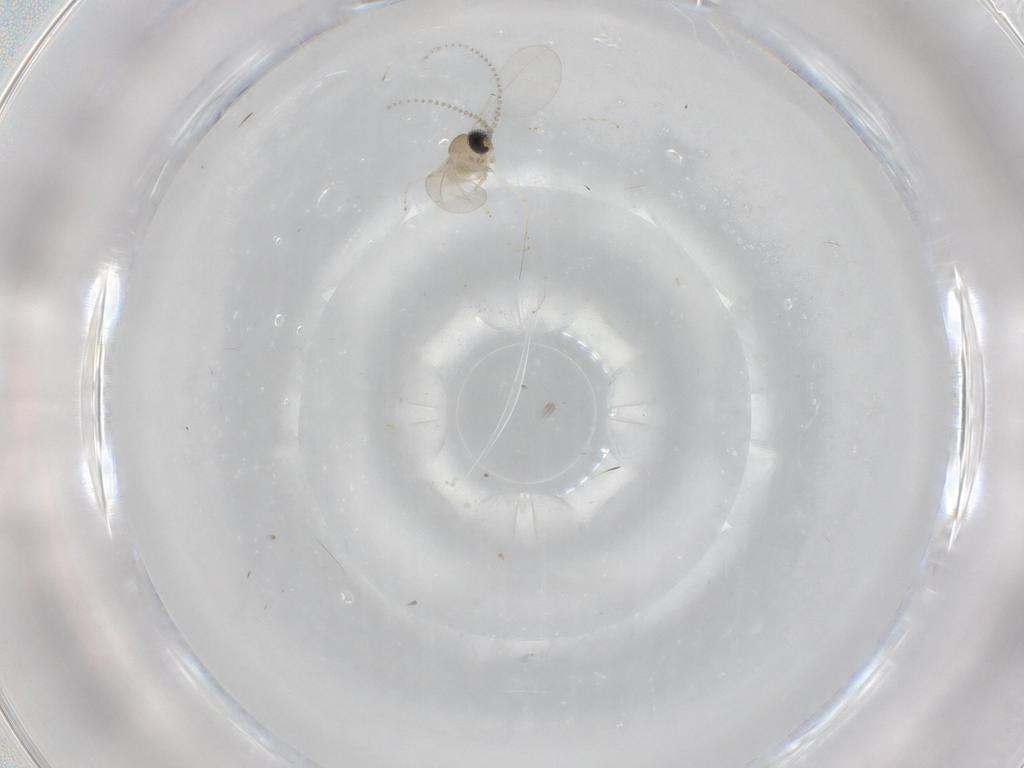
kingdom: Animalia
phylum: Arthropoda
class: Insecta
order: Diptera
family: Cecidomyiidae
